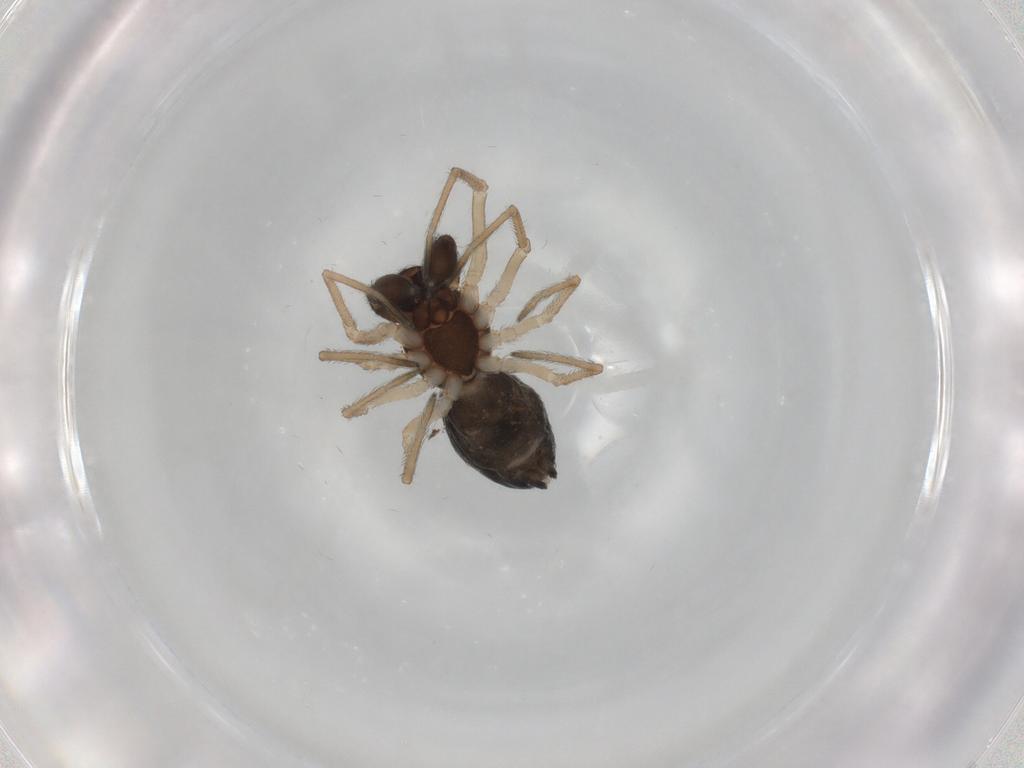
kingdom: Animalia
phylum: Arthropoda
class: Arachnida
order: Araneae
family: Dictynidae
